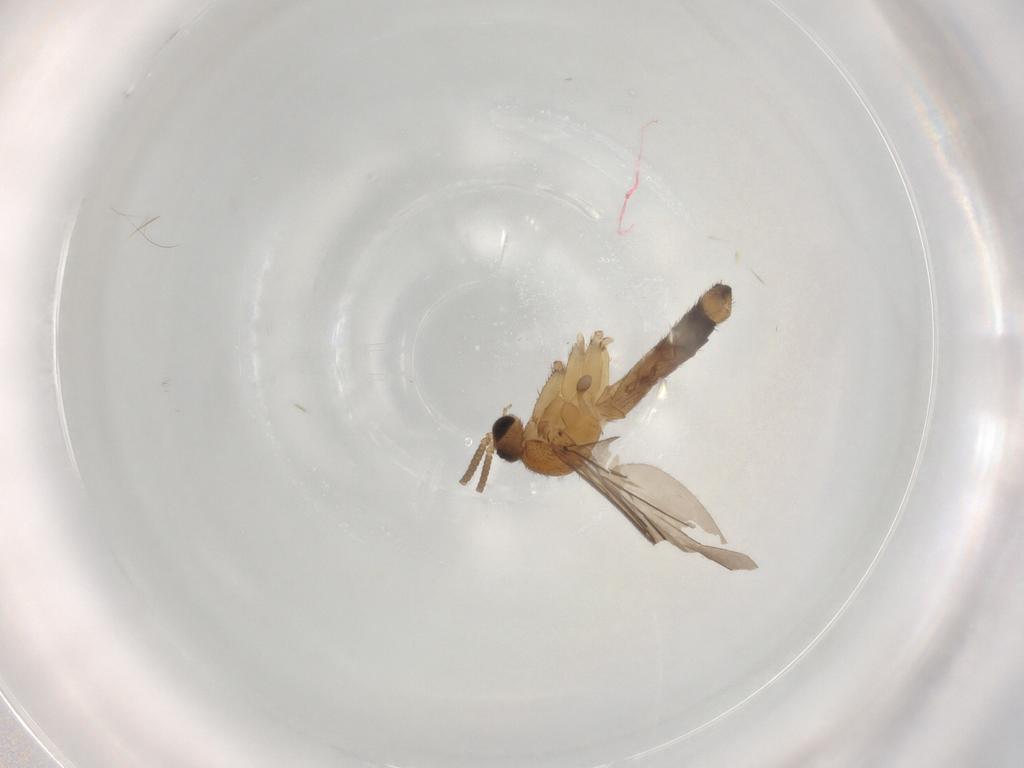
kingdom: Animalia
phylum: Arthropoda
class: Insecta
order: Diptera
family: Keroplatidae
